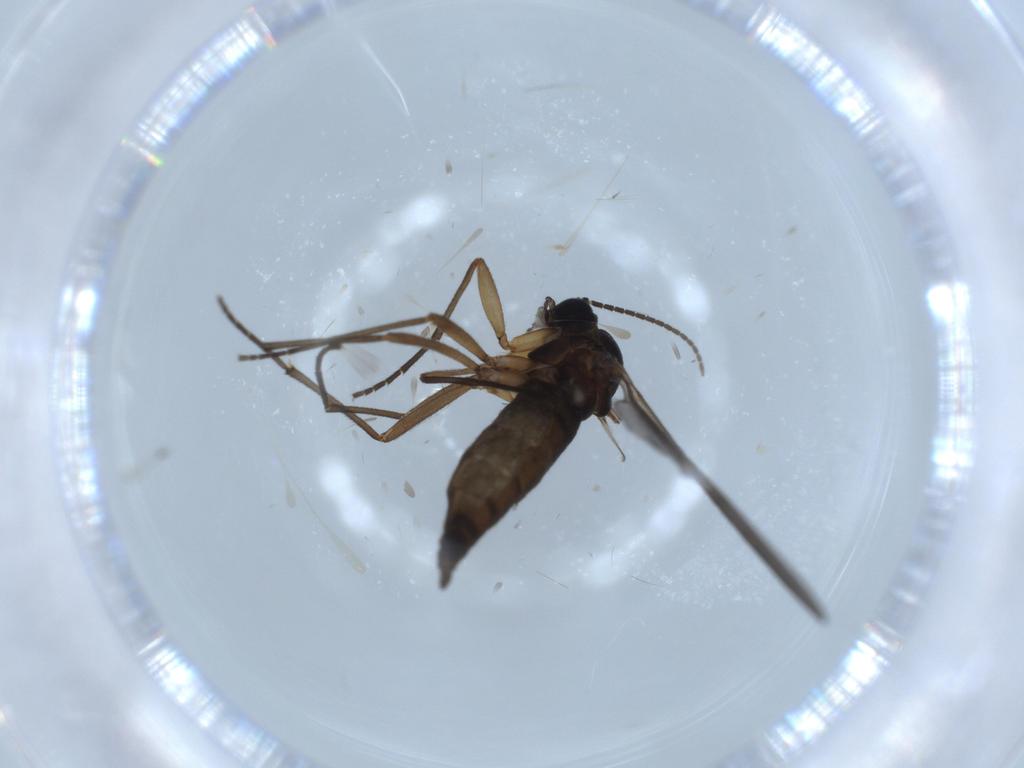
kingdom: Animalia
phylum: Arthropoda
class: Insecta
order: Diptera
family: Sciaridae
